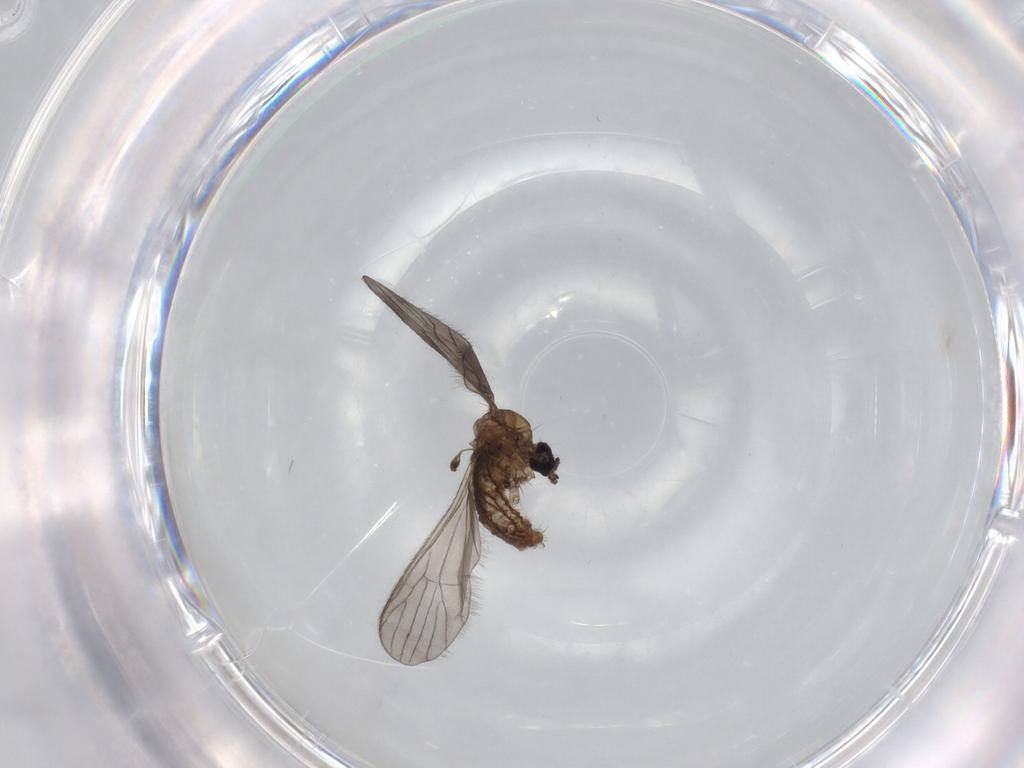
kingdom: Animalia
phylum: Arthropoda
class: Insecta
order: Diptera
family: Limoniidae
